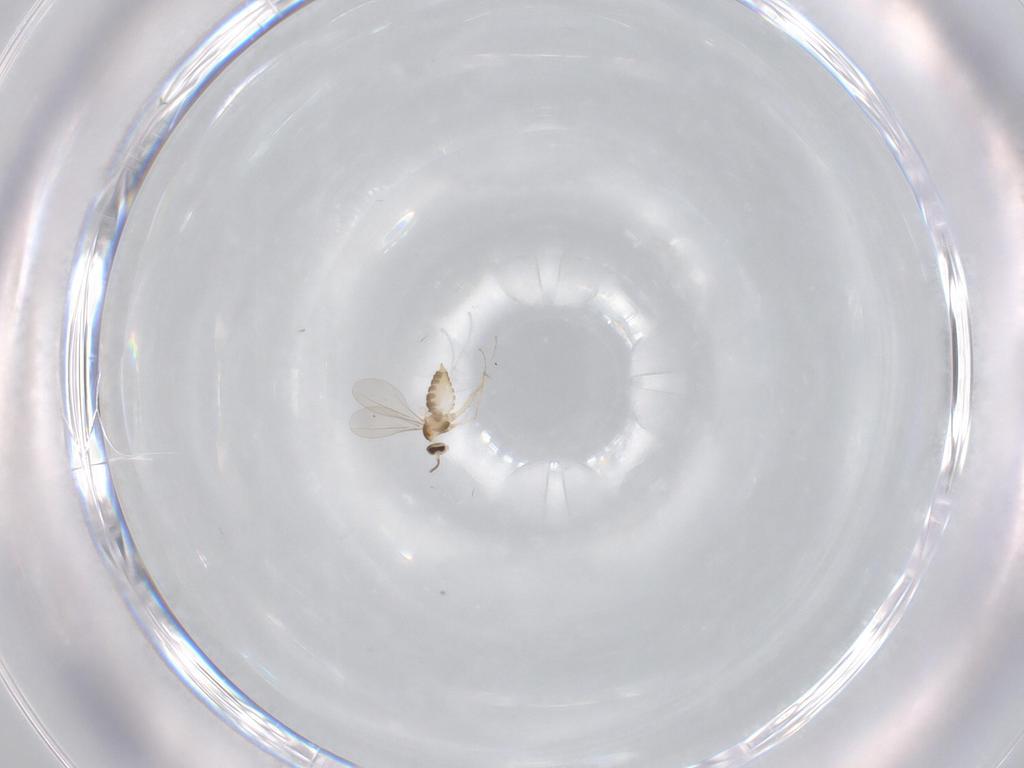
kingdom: Animalia
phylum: Arthropoda
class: Insecta
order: Diptera
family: Cecidomyiidae
